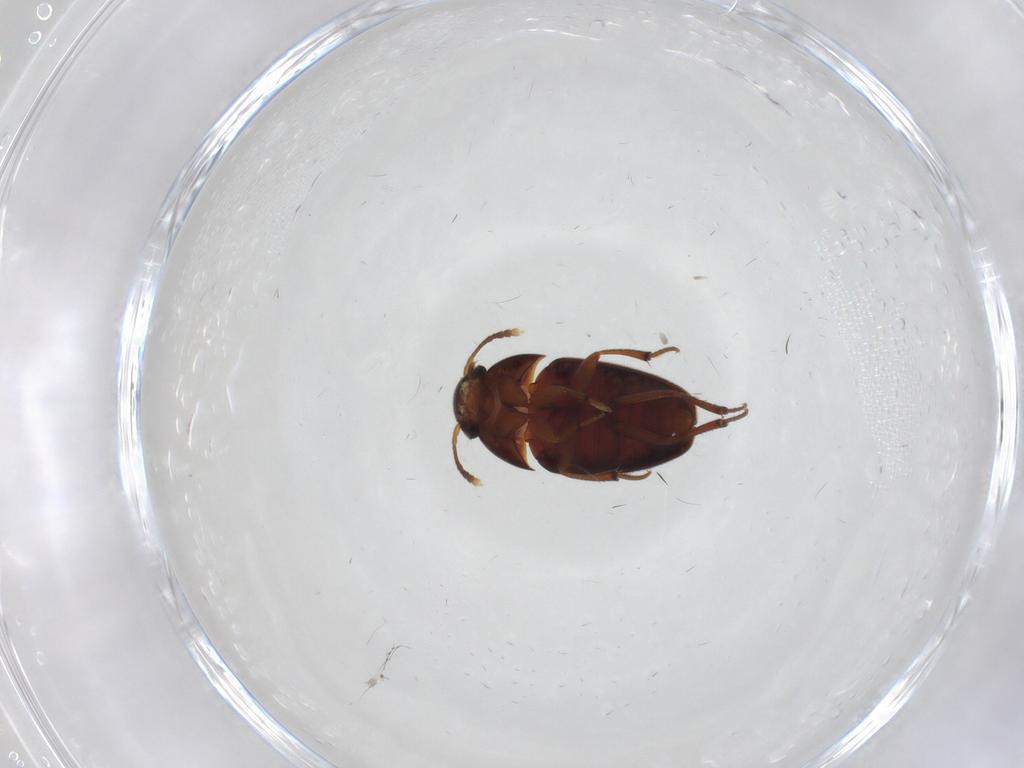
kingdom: Animalia
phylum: Arthropoda
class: Insecta
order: Coleoptera
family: Leiodidae
